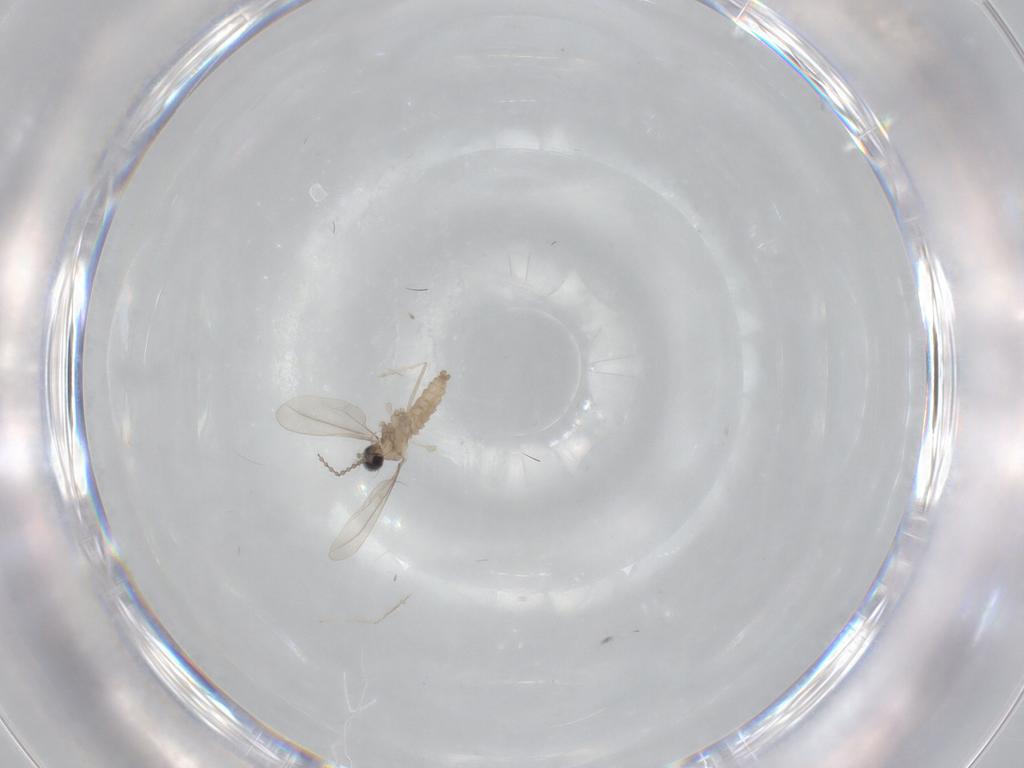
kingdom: Animalia
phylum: Arthropoda
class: Insecta
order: Diptera
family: Cecidomyiidae
